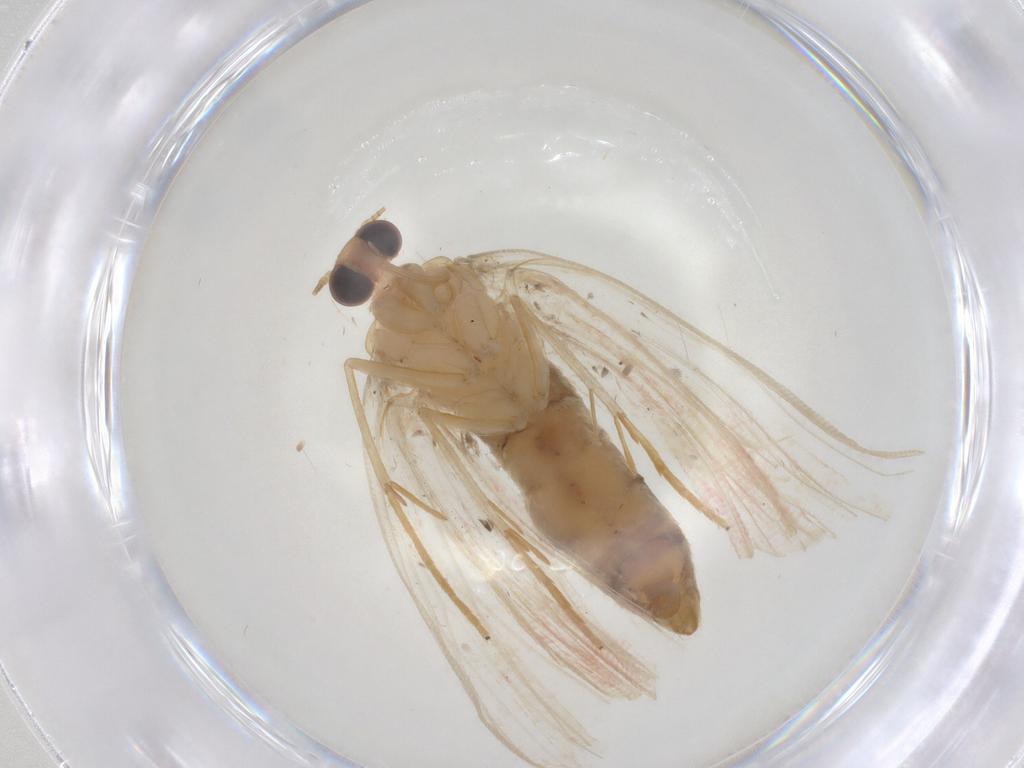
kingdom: Animalia
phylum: Arthropoda
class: Insecta
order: Lepidoptera
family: Geometridae
